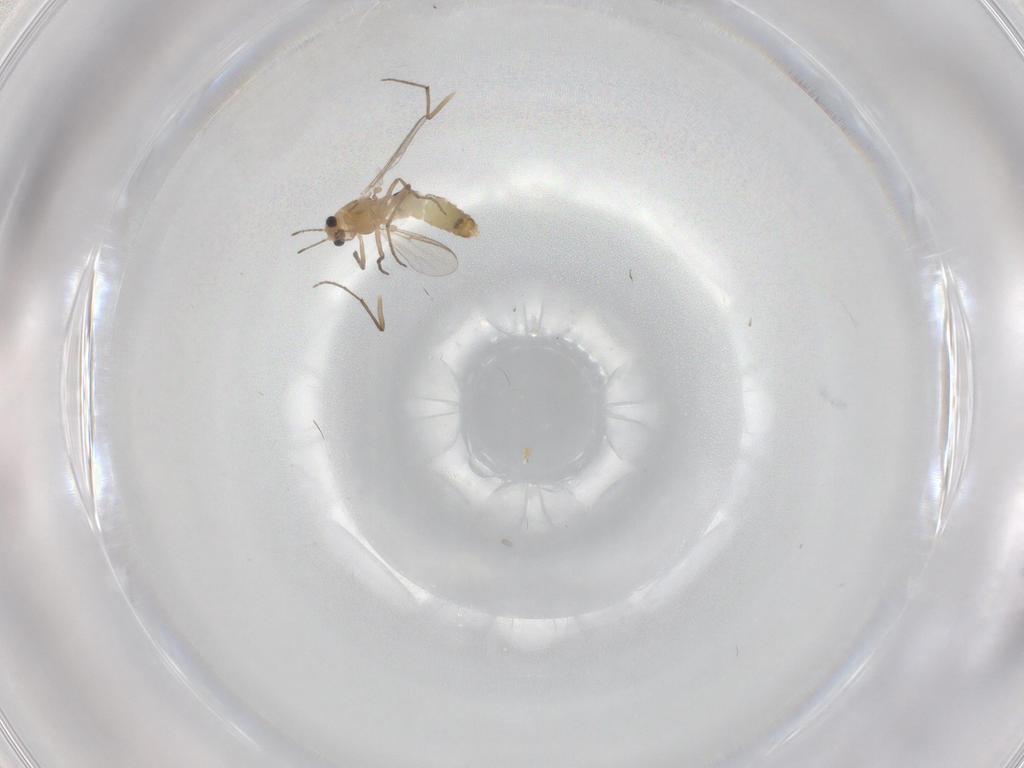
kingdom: Animalia
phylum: Arthropoda
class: Insecta
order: Diptera
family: Chironomidae
